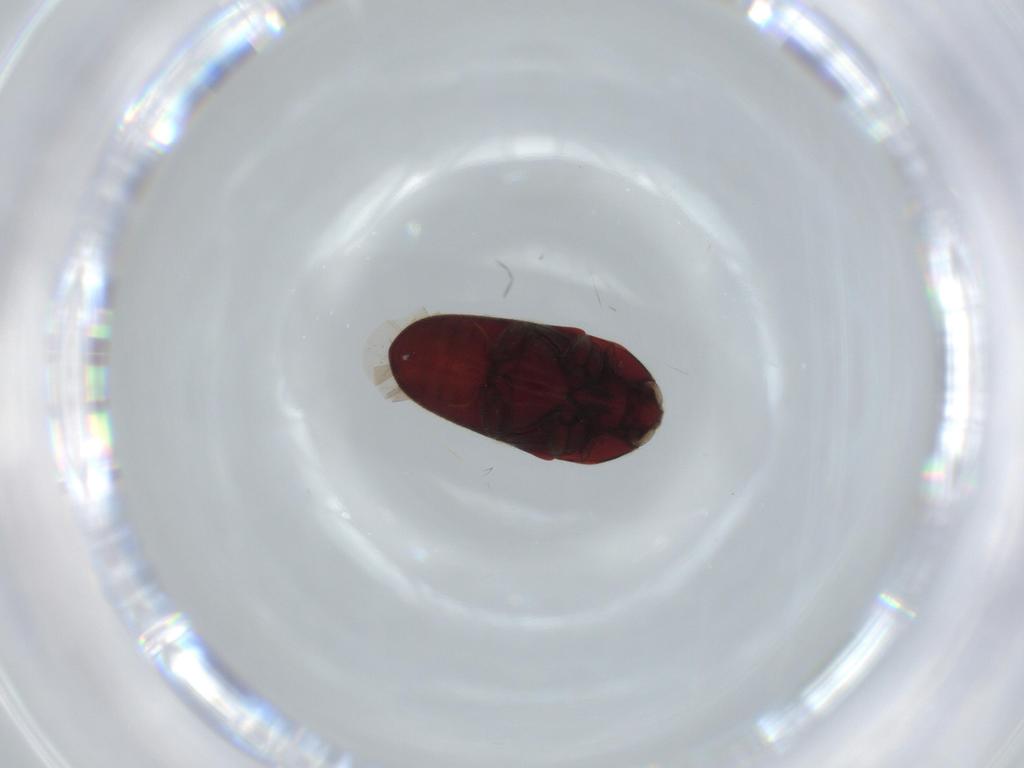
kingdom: Animalia
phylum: Arthropoda
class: Insecta
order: Coleoptera
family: Throscidae
